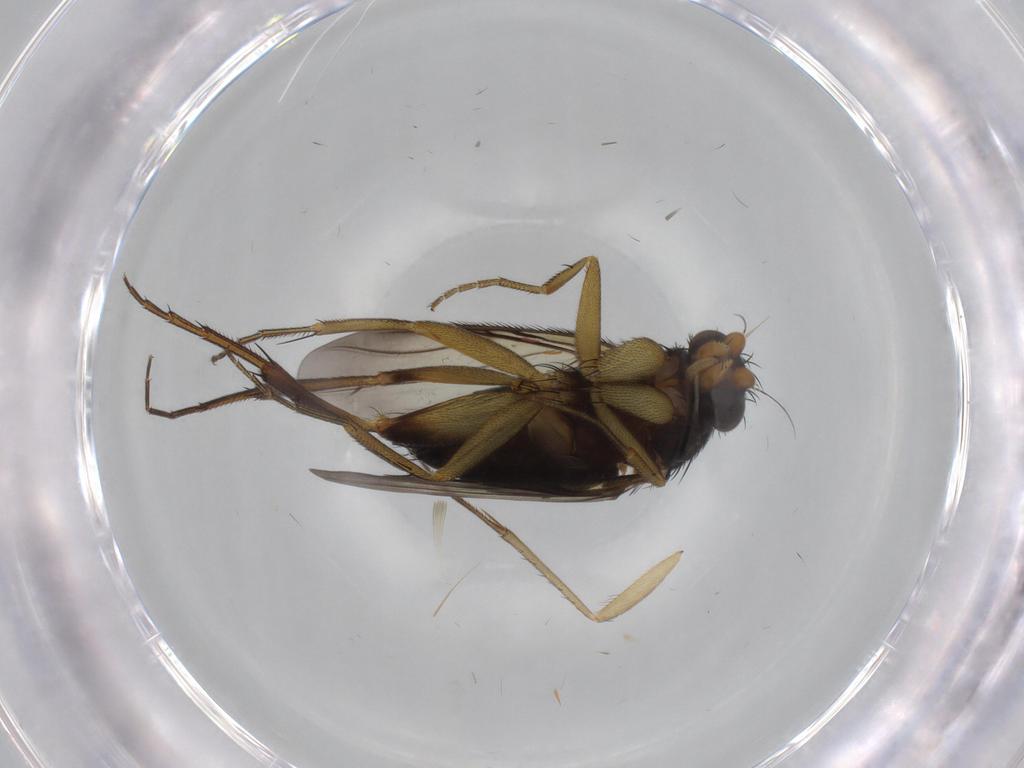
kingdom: Animalia
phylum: Arthropoda
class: Insecta
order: Diptera
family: Phoridae
